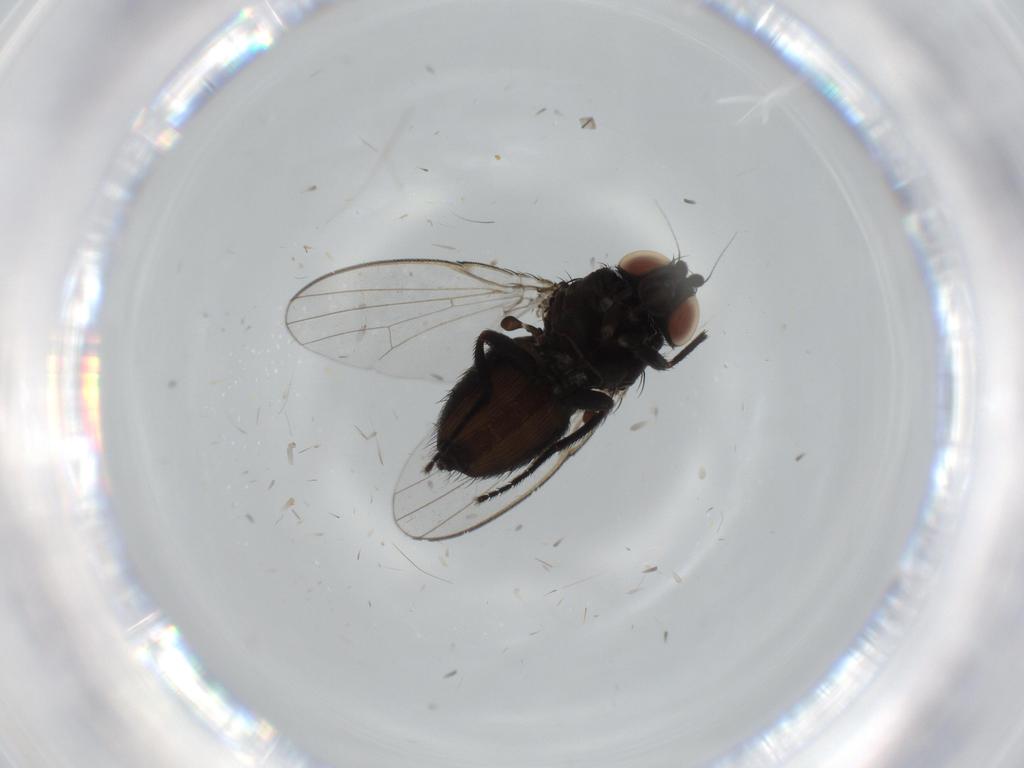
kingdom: Animalia
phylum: Arthropoda
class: Insecta
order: Diptera
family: Milichiidae
